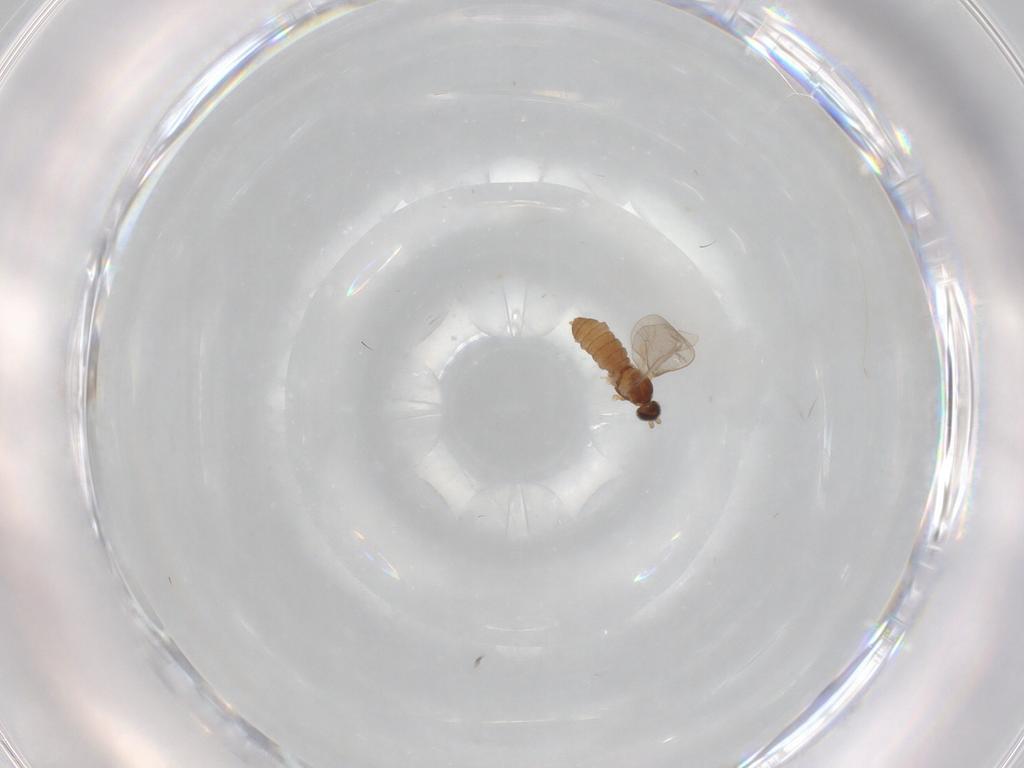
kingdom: Animalia
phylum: Arthropoda
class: Insecta
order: Diptera
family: Cecidomyiidae
